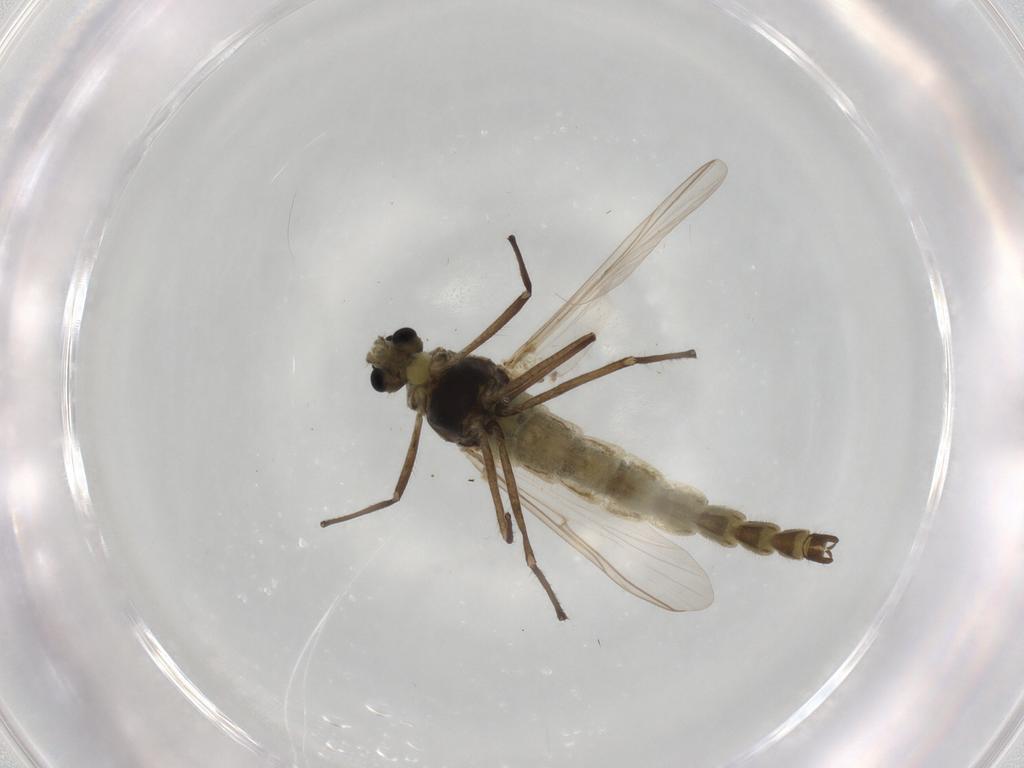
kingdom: Animalia
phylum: Arthropoda
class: Insecta
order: Diptera
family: Chironomidae
